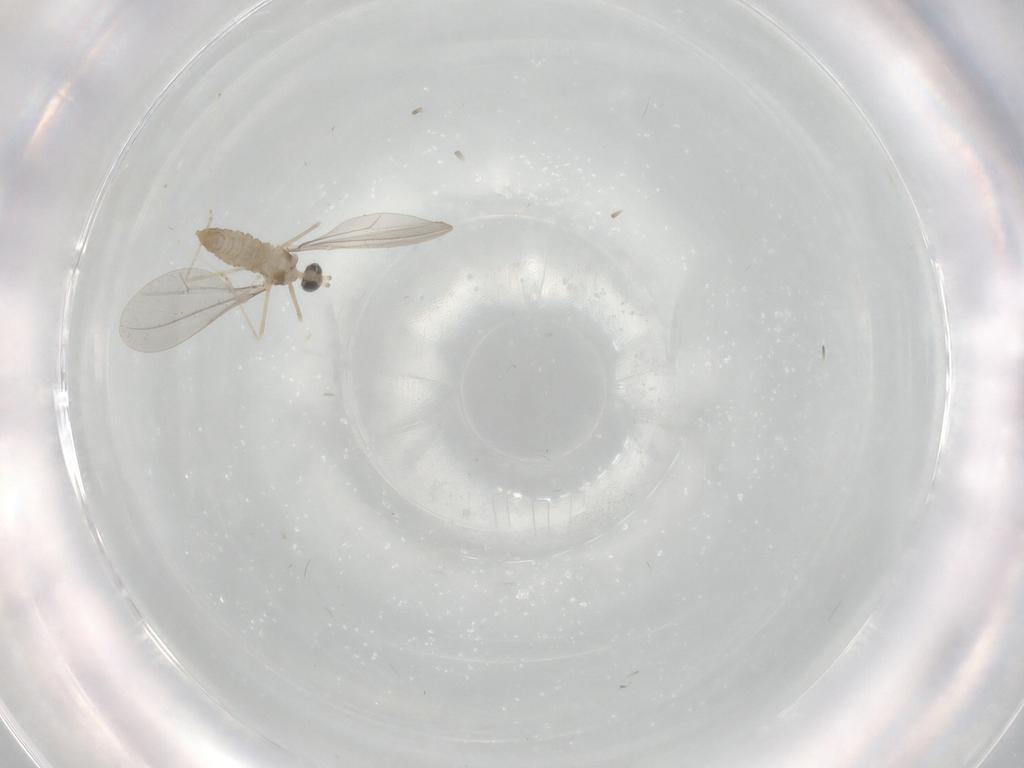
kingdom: Animalia
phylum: Arthropoda
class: Insecta
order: Diptera
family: Cecidomyiidae
